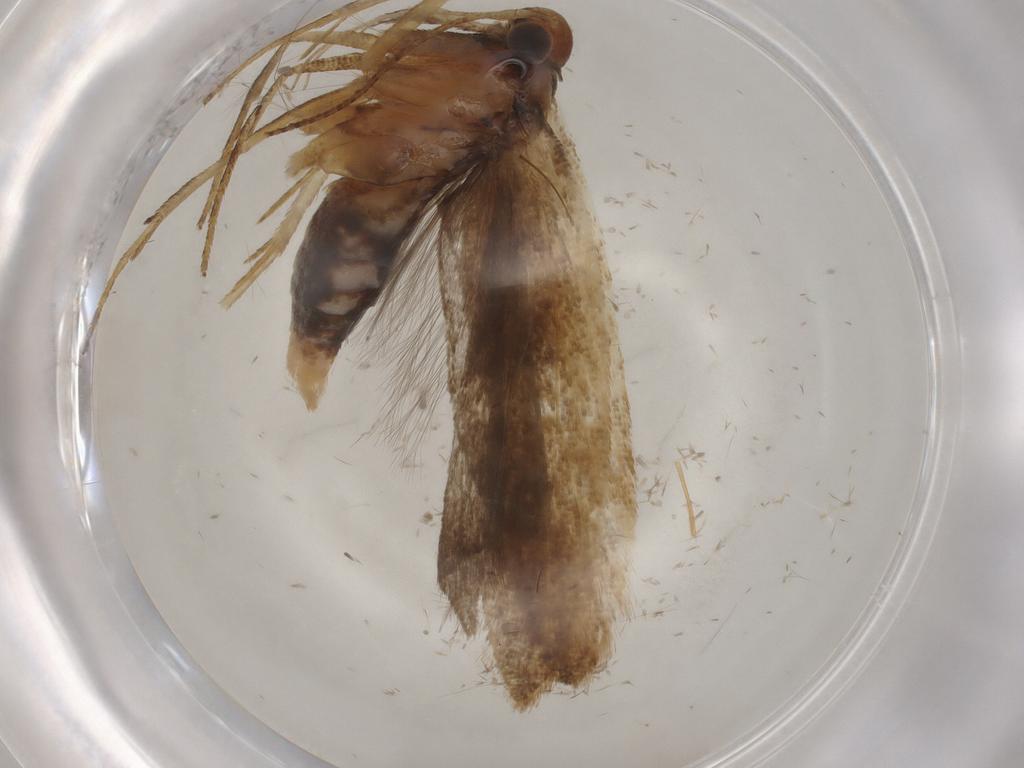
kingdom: Animalia
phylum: Arthropoda
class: Insecta
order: Lepidoptera
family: Gelechiidae
